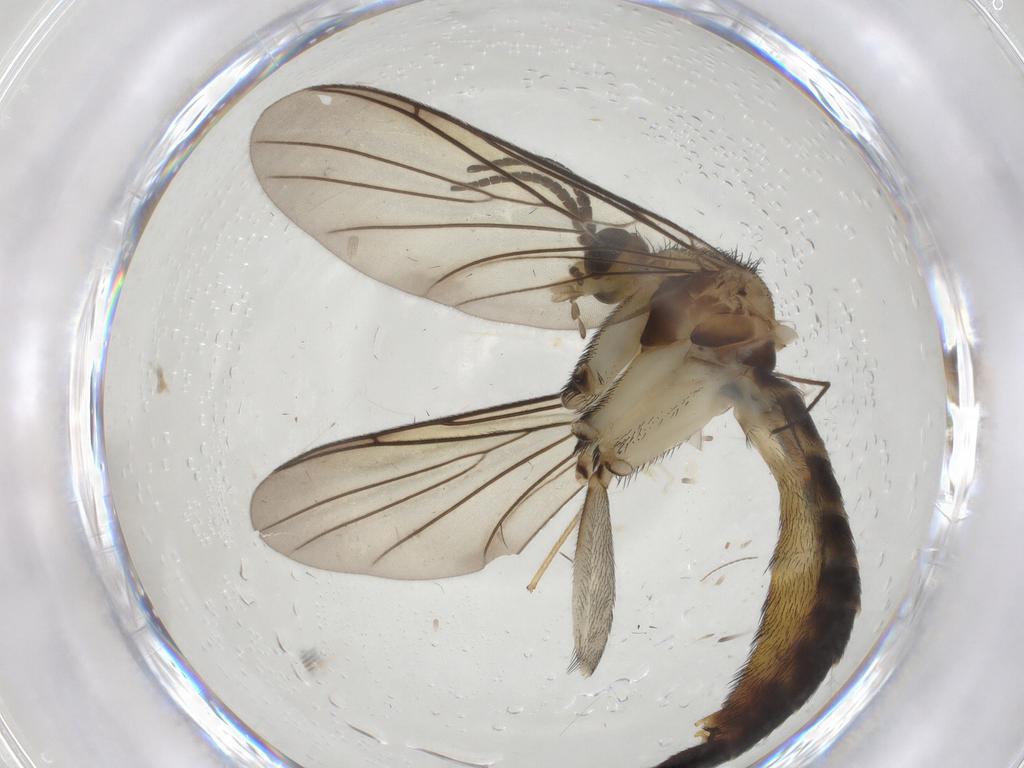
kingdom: Animalia
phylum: Arthropoda
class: Insecta
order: Diptera
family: Keroplatidae
